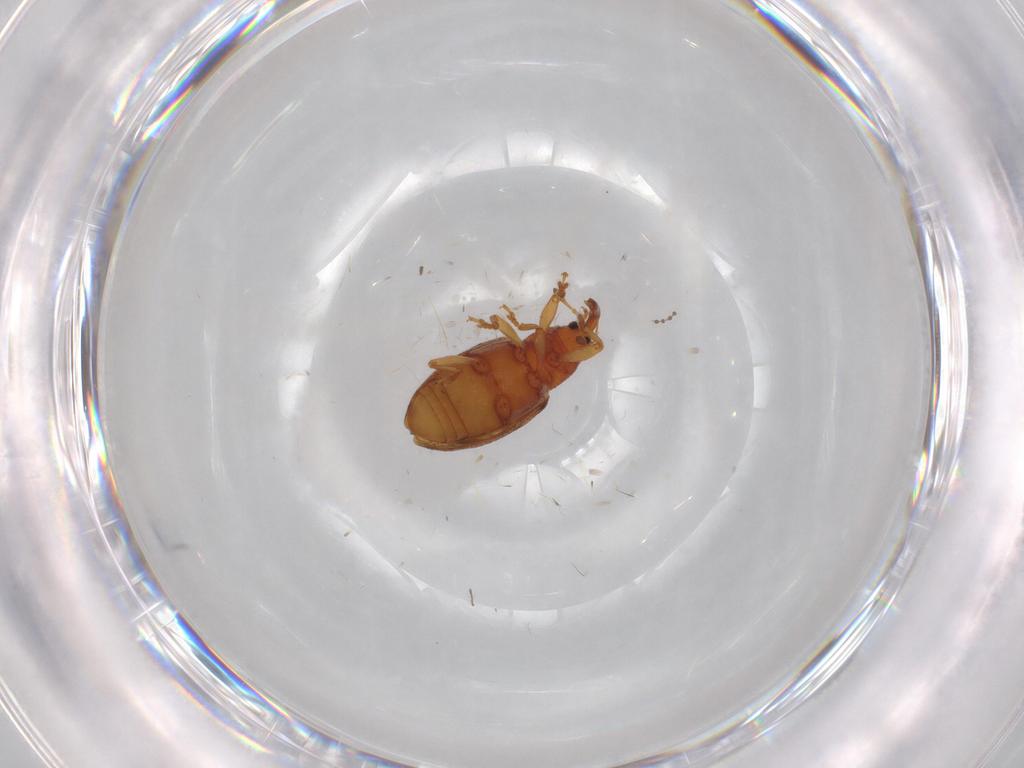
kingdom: Animalia
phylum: Arthropoda
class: Insecta
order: Coleoptera
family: Curculionidae
